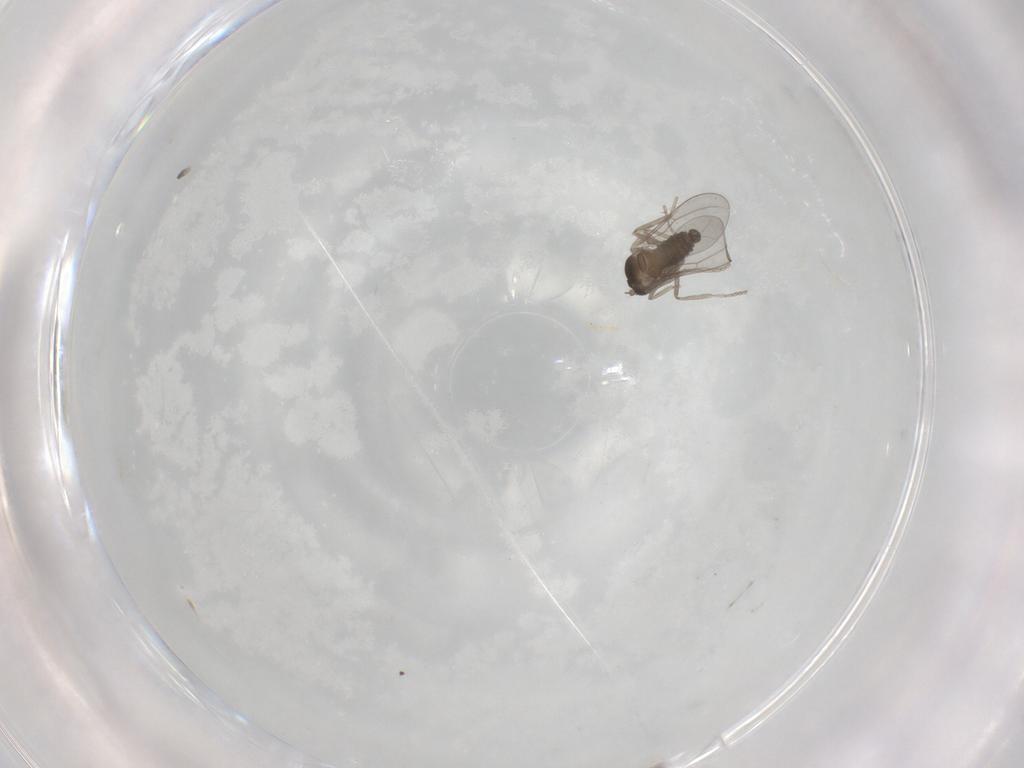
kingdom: Animalia
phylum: Arthropoda
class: Insecta
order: Diptera
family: Cecidomyiidae
